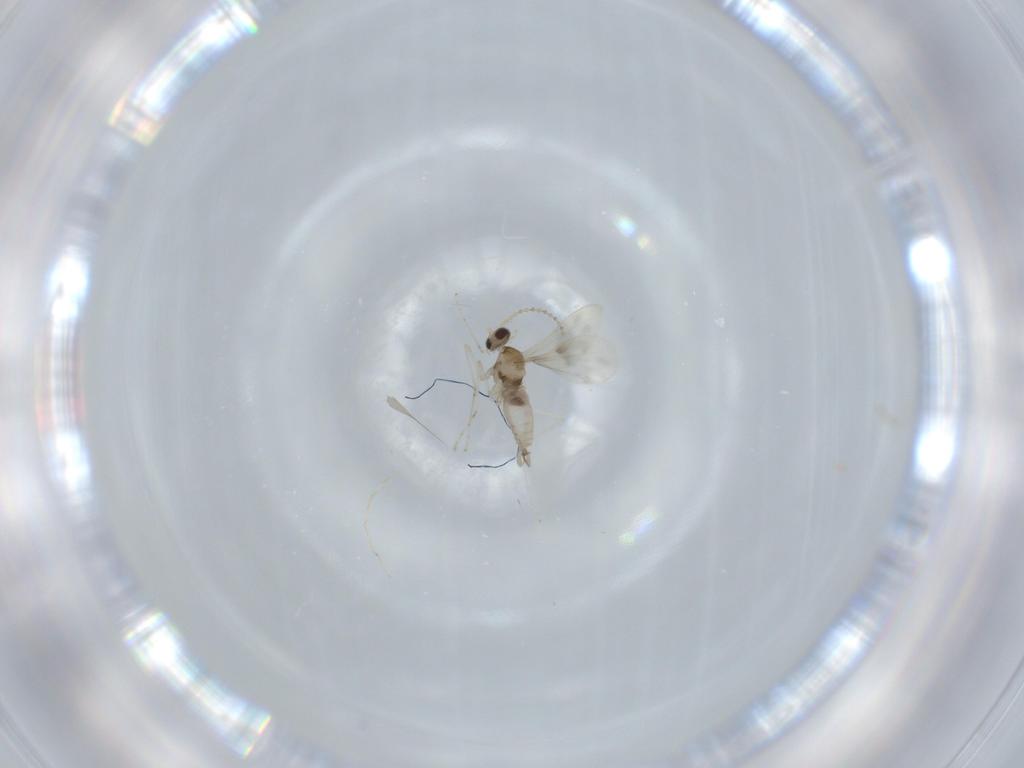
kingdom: Animalia
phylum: Arthropoda
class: Insecta
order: Diptera
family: Cecidomyiidae
